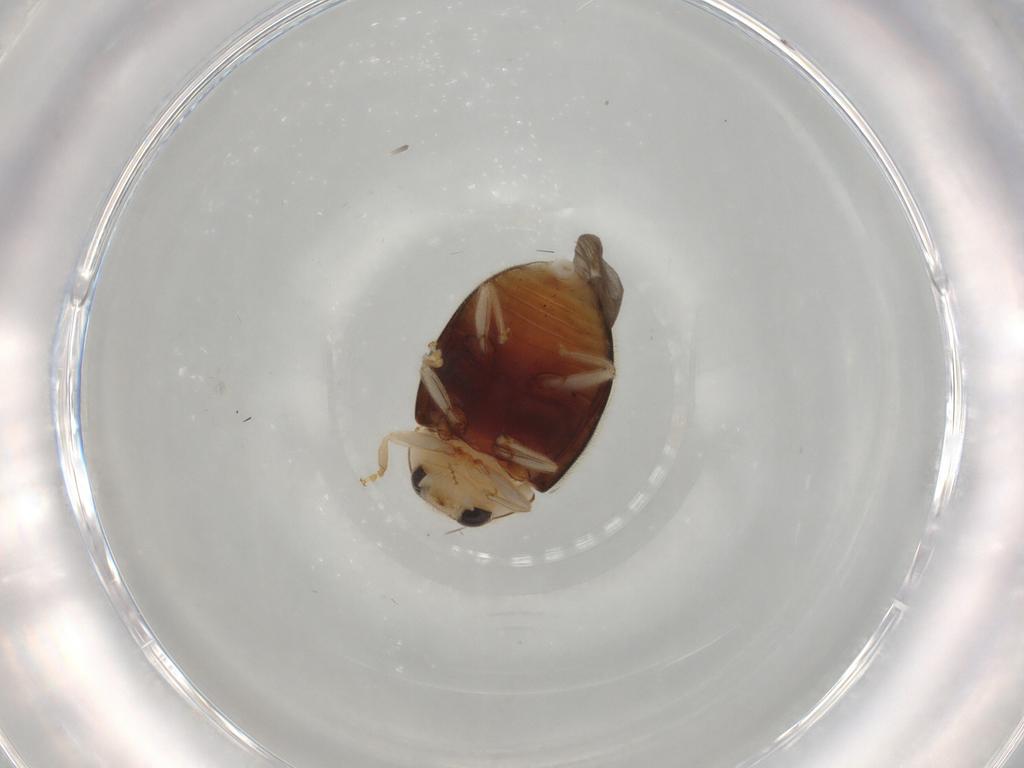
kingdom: Animalia
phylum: Arthropoda
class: Insecta
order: Coleoptera
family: Coccinellidae
